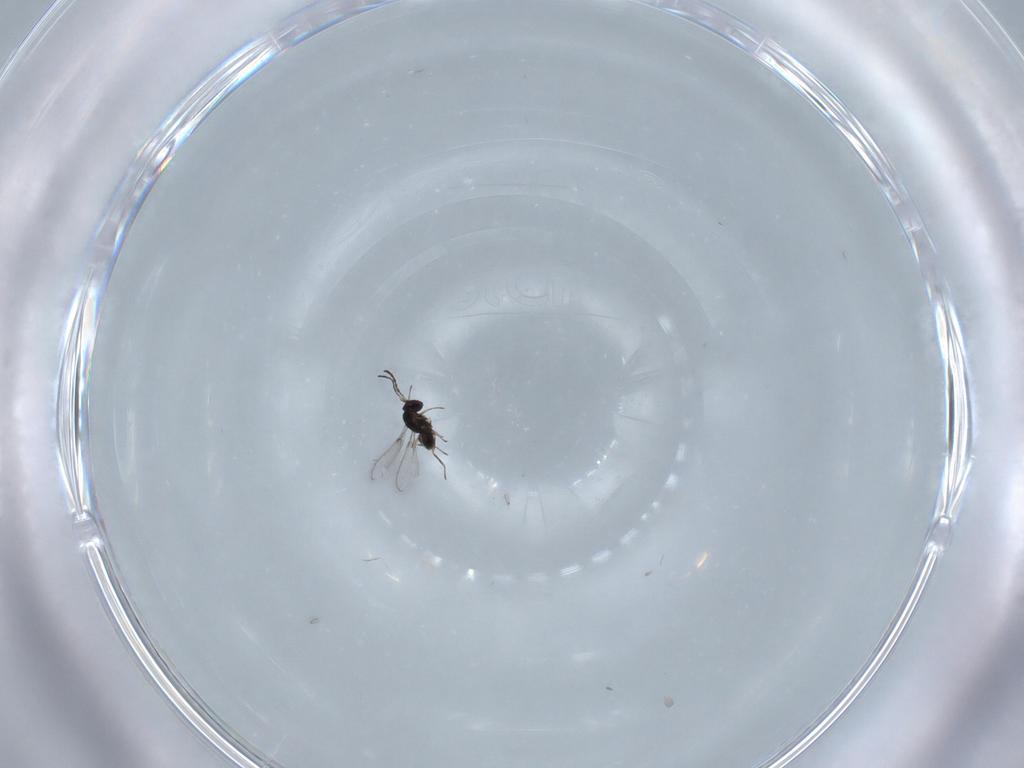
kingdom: Animalia
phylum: Arthropoda
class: Insecta
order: Hymenoptera
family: Mymaridae
